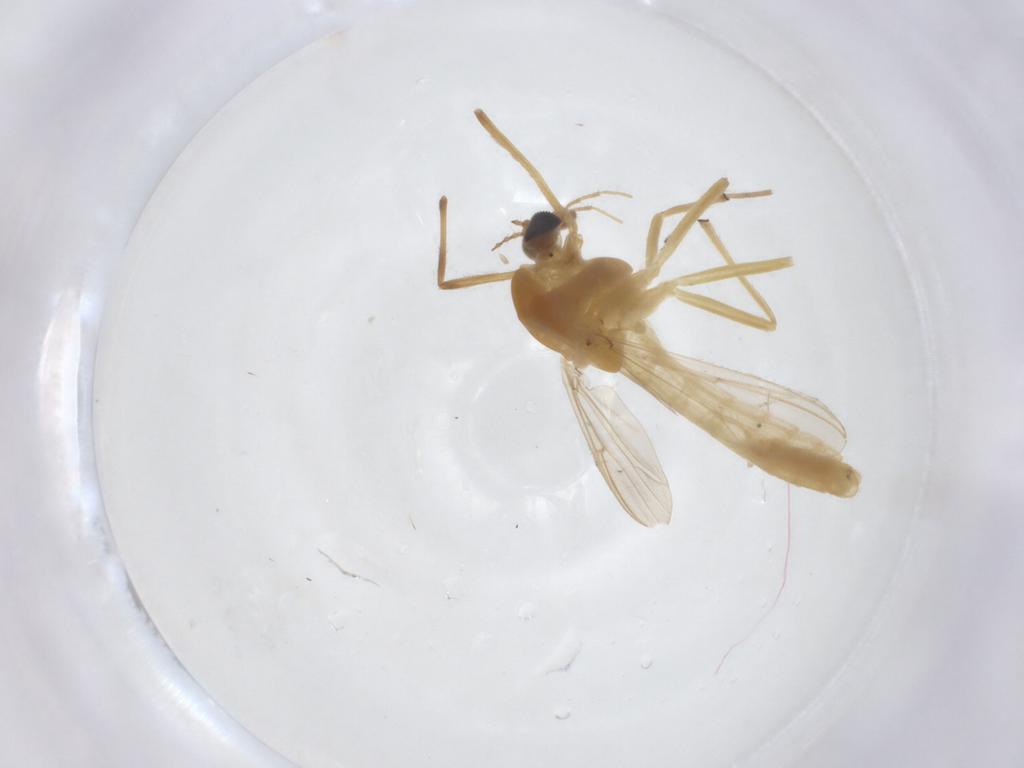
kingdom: Animalia
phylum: Arthropoda
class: Insecta
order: Diptera
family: Chironomidae
